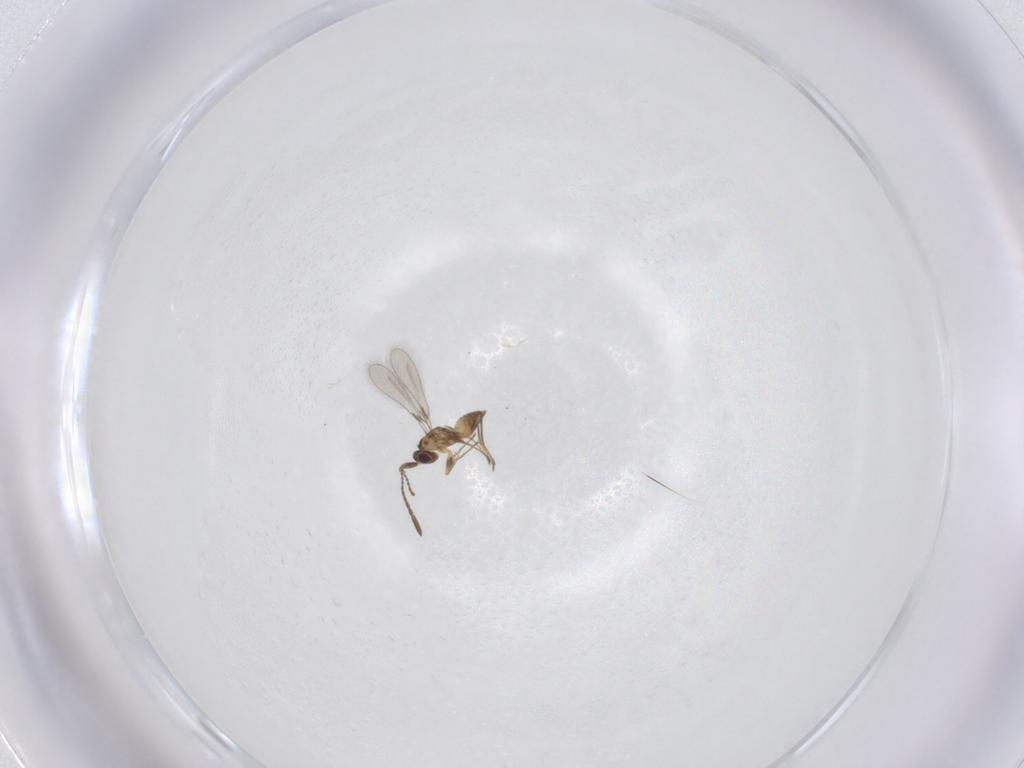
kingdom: Animalia
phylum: Arthropoda
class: Insecta
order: Hymenoptera
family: Mymaridae
